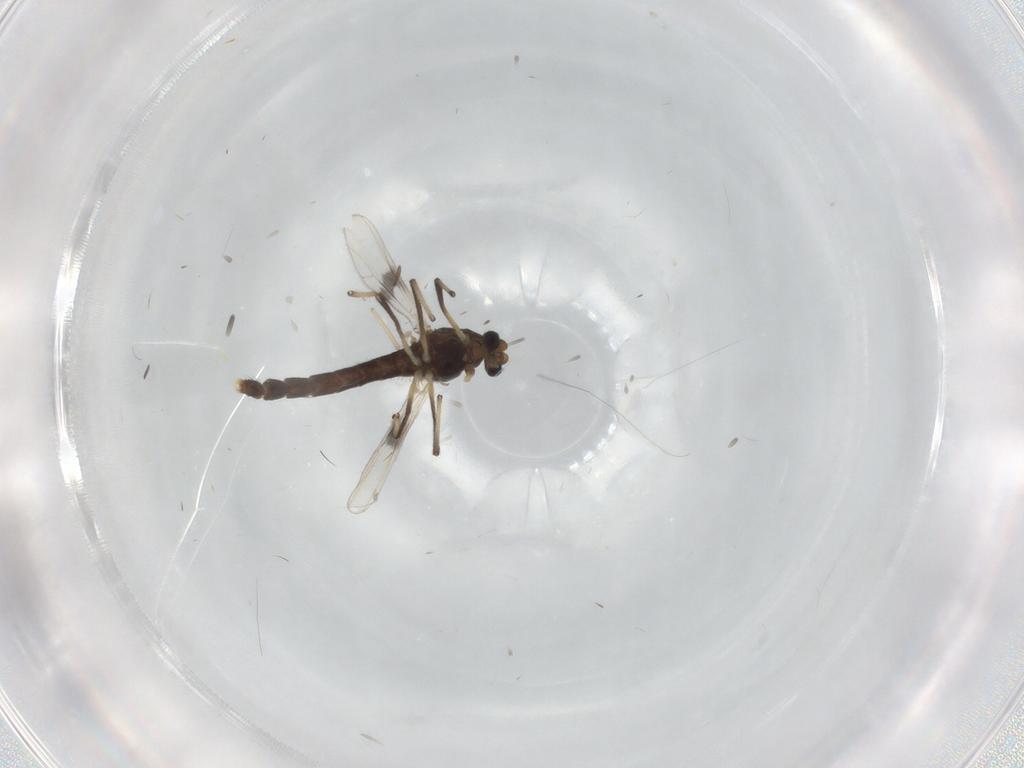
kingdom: Animalia
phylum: Arthropoda
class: Insecta
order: Diptera
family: Chironomidae
